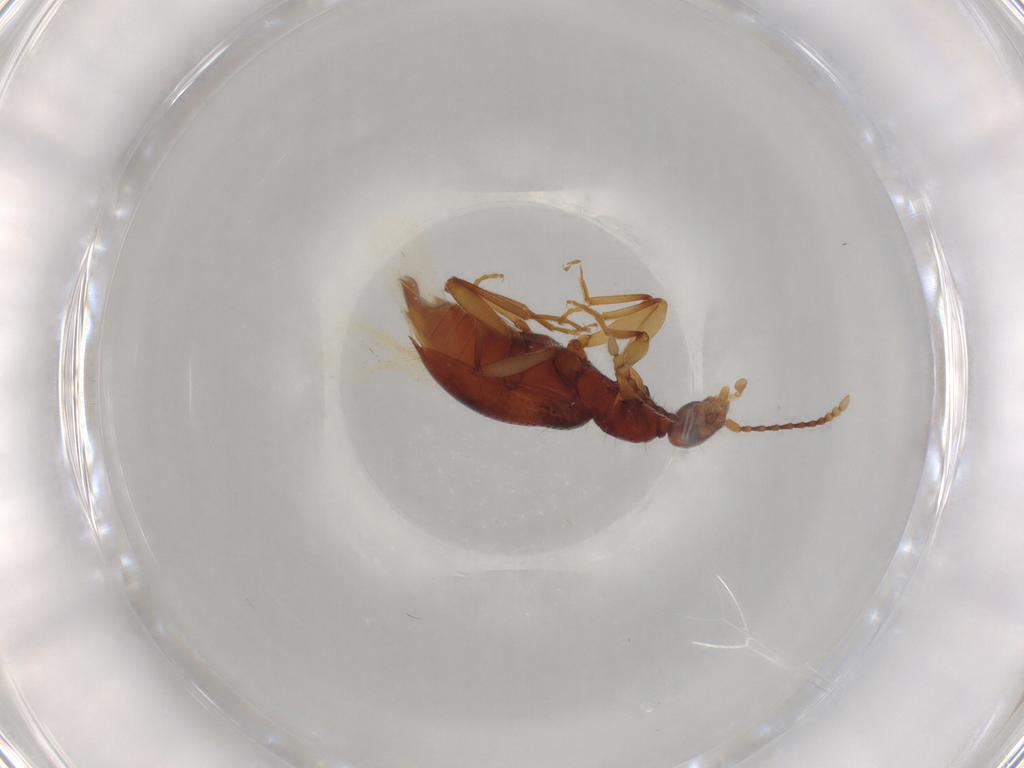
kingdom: Animalia
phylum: Arthropoda
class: Insecta
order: Coleoptera
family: Anthicidae
